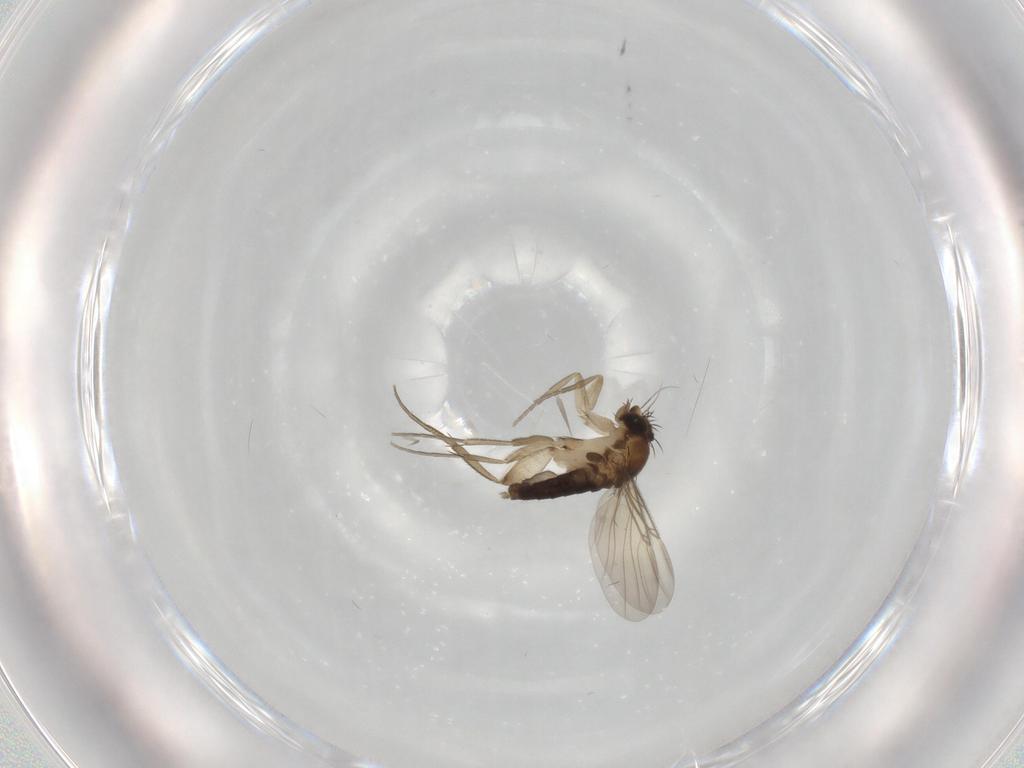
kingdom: Animalia
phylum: Arthropoda
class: Insecta
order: Diptera
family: Phoridae
